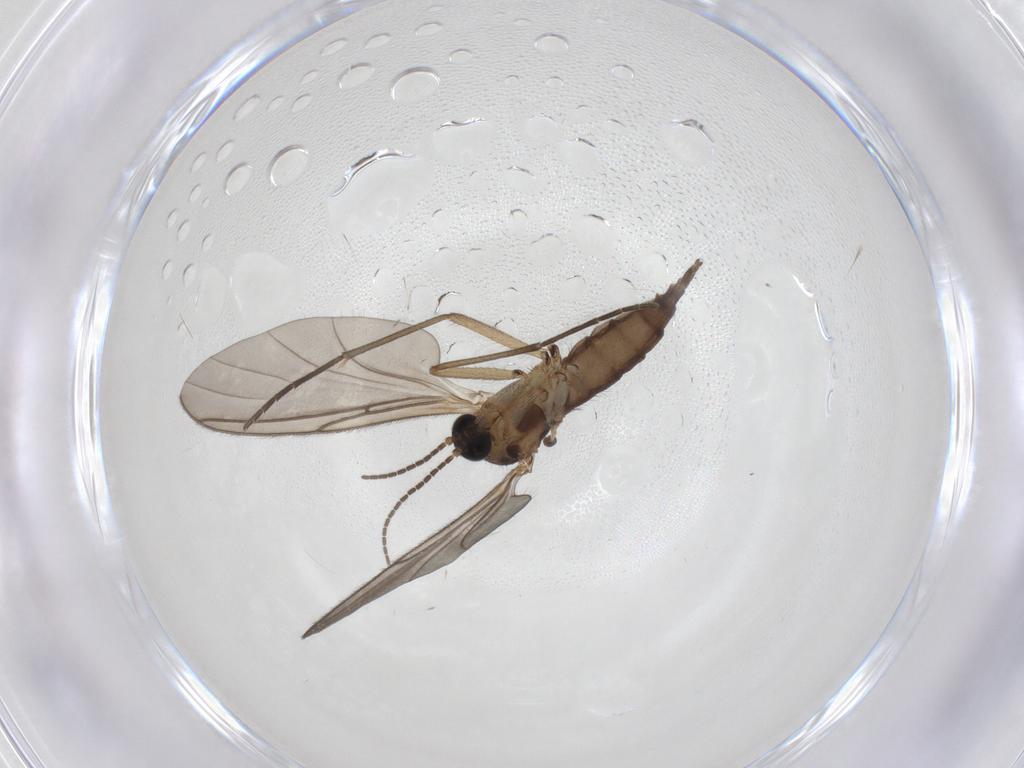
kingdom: Animalia
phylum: Arthropoda
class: Insecta
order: Diptera
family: Sciaridae
